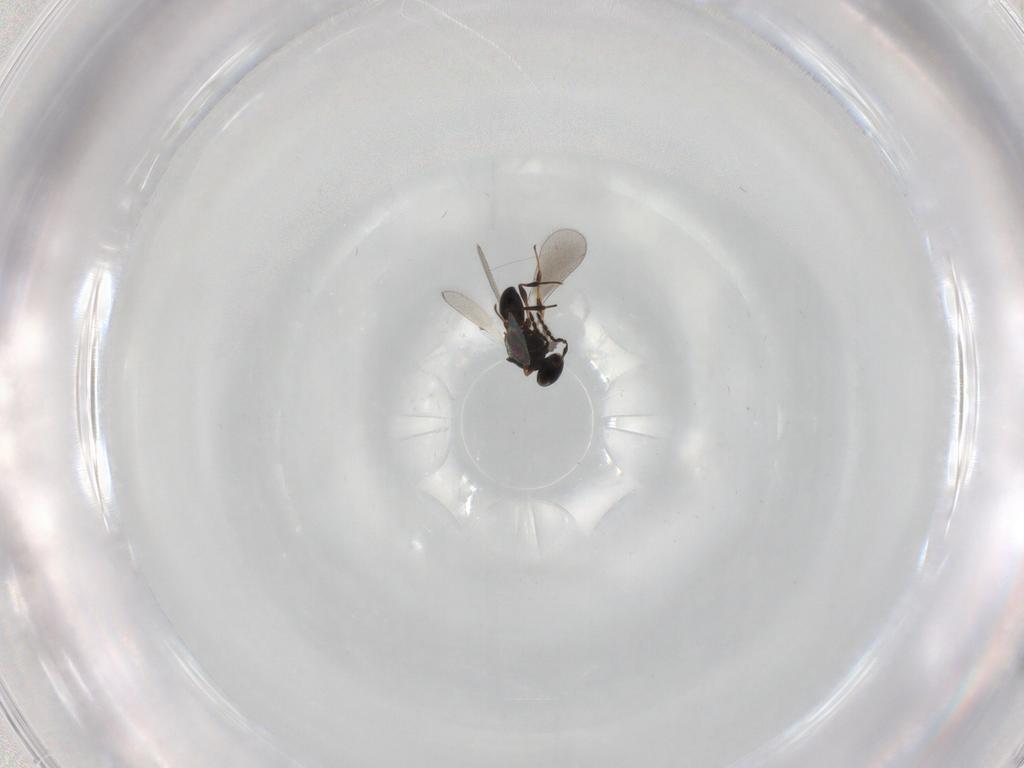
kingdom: Animalia
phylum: Arthropoda
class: Insecta
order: Hymenoptera
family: Platygastridae
